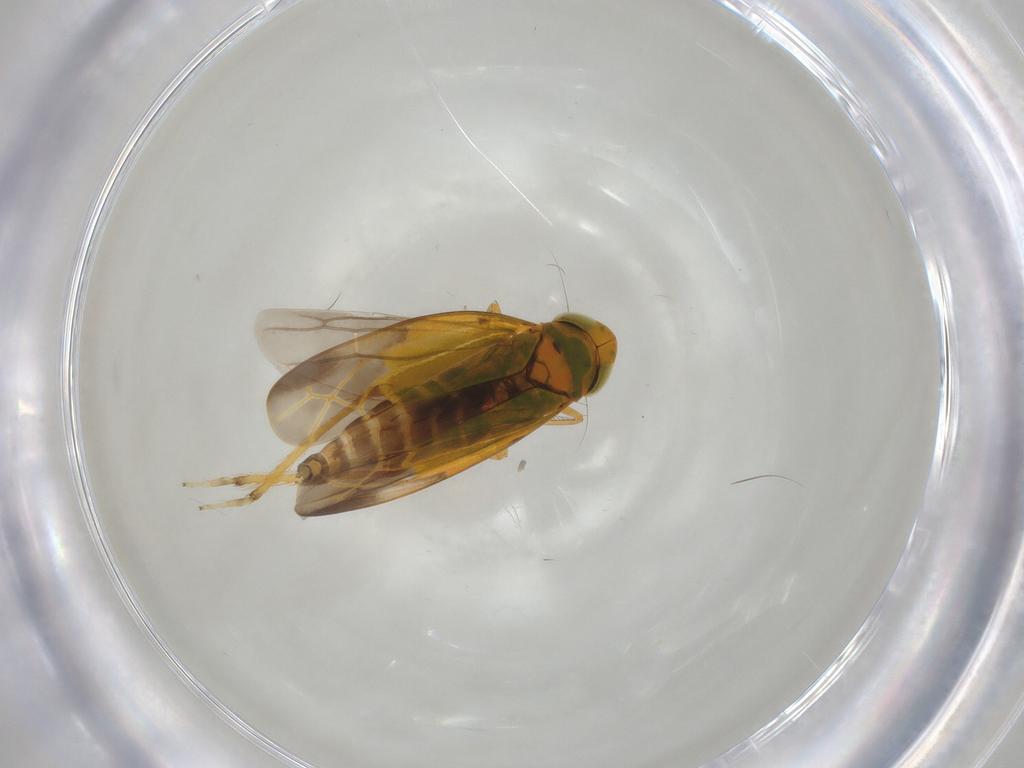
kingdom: Animalia
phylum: Arthropoda
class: Insecta
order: Hemiptera
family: Cicadellidae
